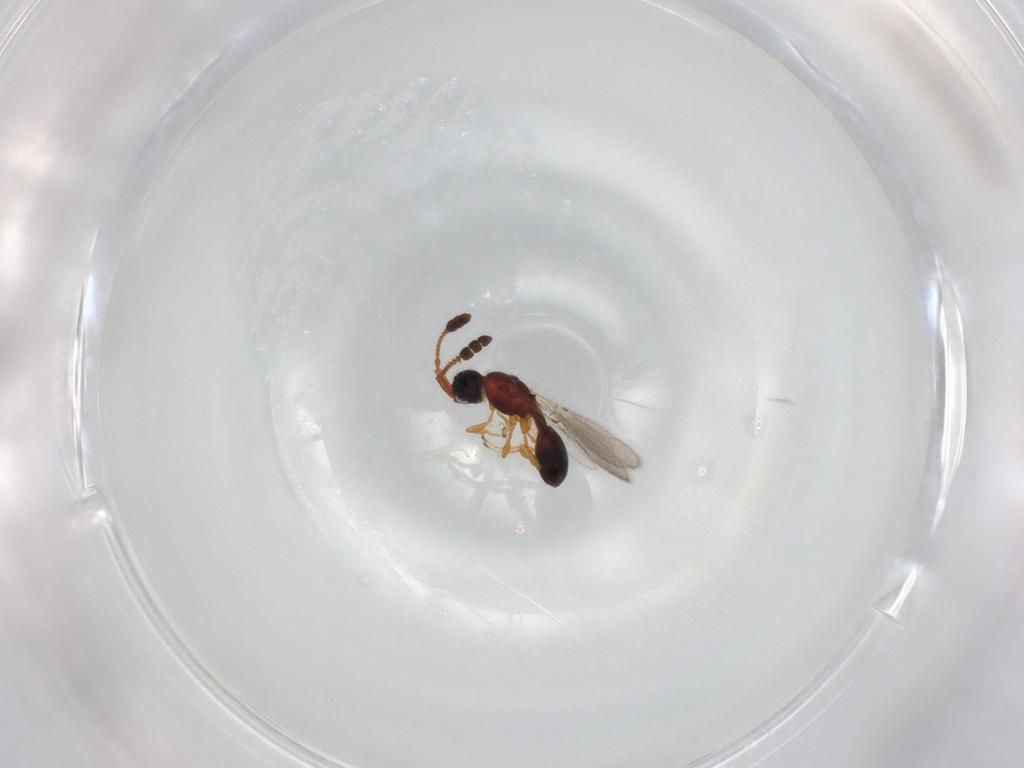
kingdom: Animalia
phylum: Arthropoda
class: Insecta
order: Hymenoptera
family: Diapriidae
